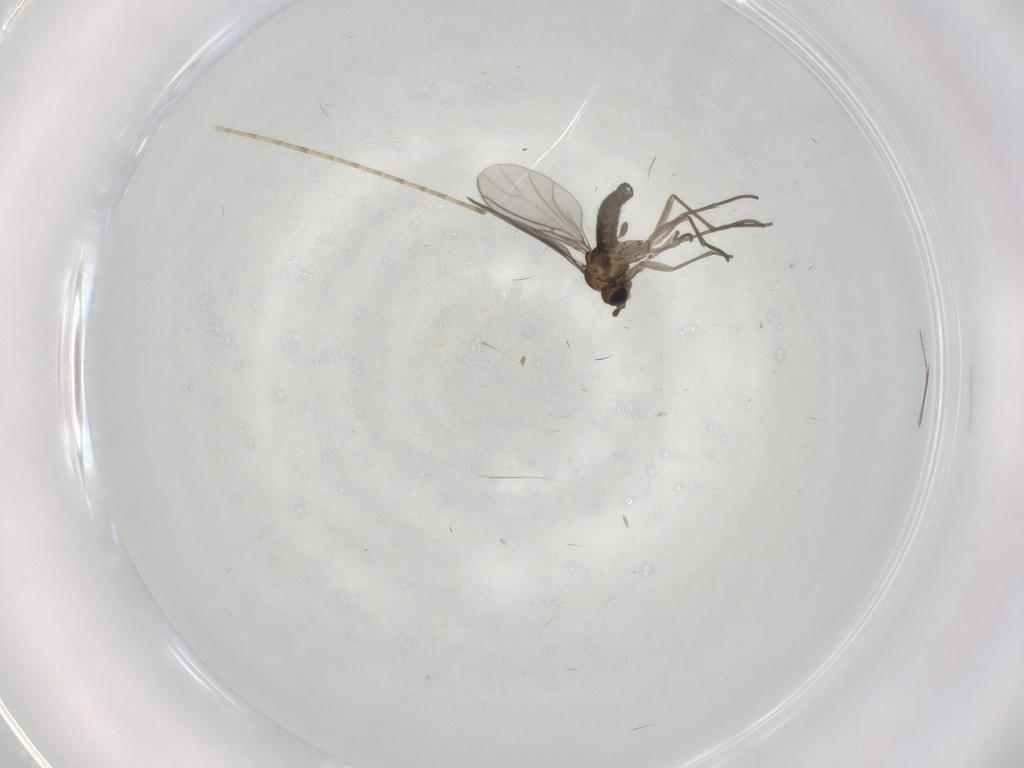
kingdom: Animalia
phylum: Arthropoda
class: Insecta
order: Diptera
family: Sciaridae
